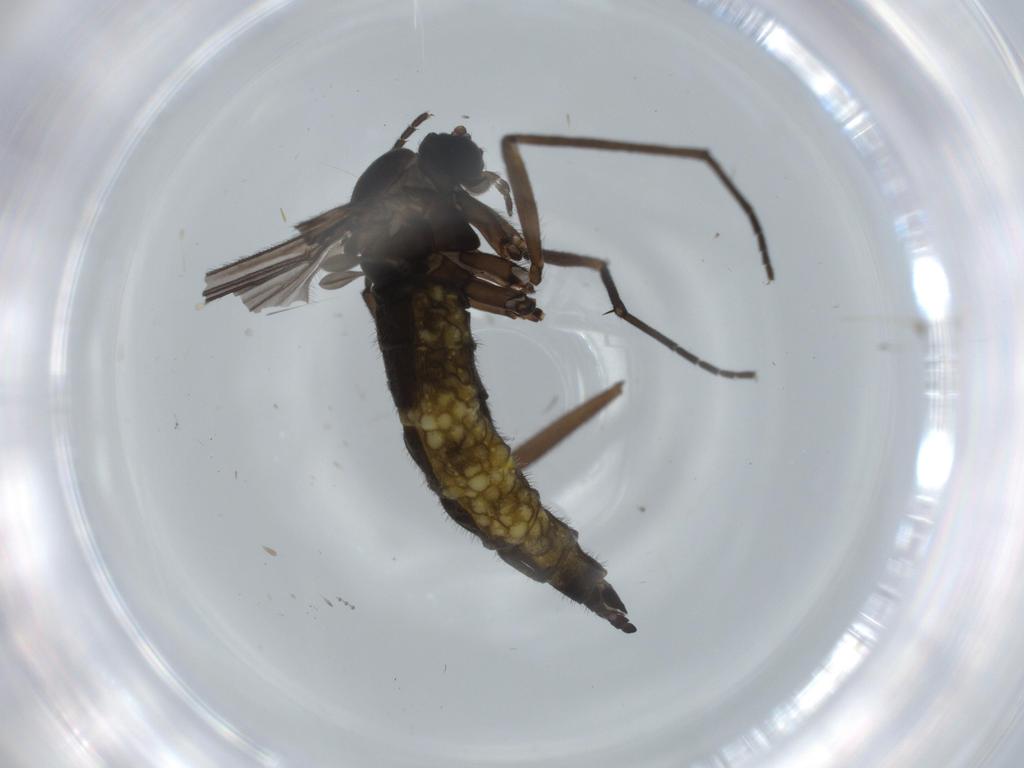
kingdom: Animalia
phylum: Arthropoda
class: Insecta
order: Diptera
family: Sciaridae
